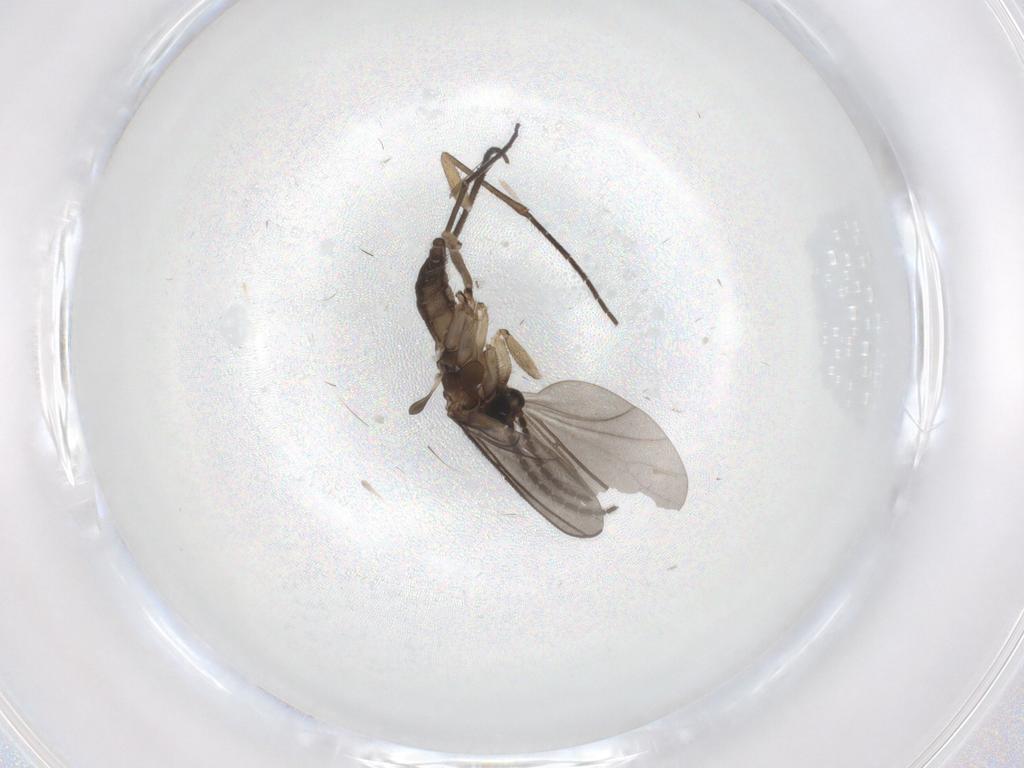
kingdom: Animalia
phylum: Arthropoda
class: Insecta
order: Diptera
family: Sciaridae
